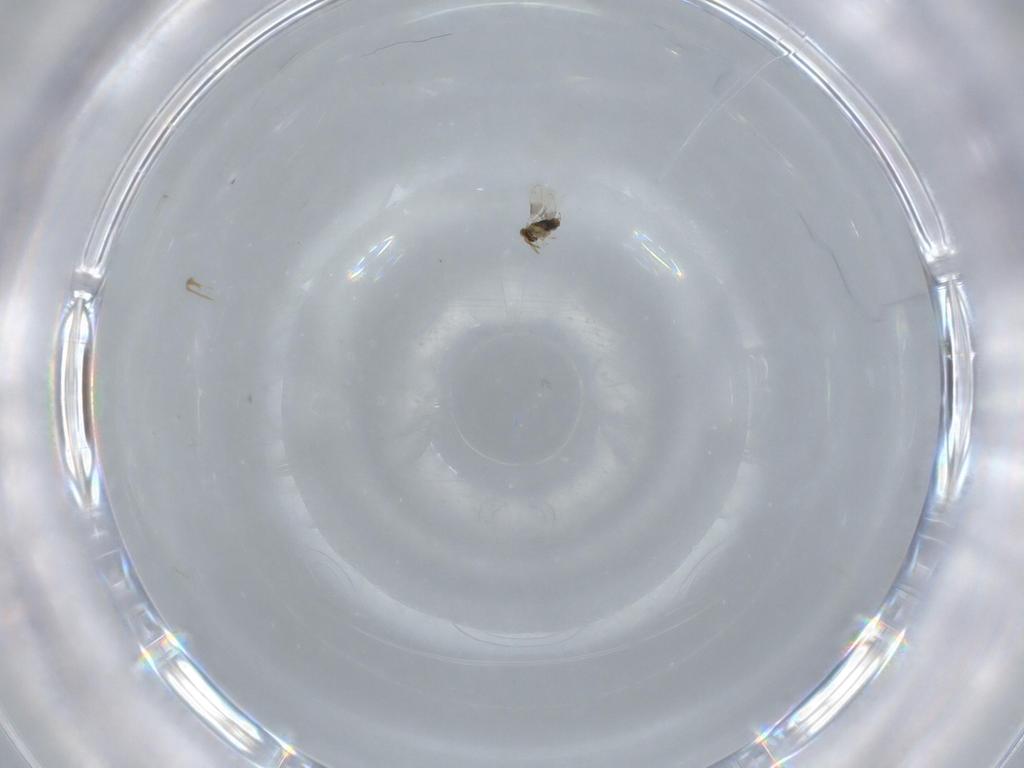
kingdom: Animalia
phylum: Arthropoda
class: Insecta
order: Hymenoptera
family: Aphelinidae
